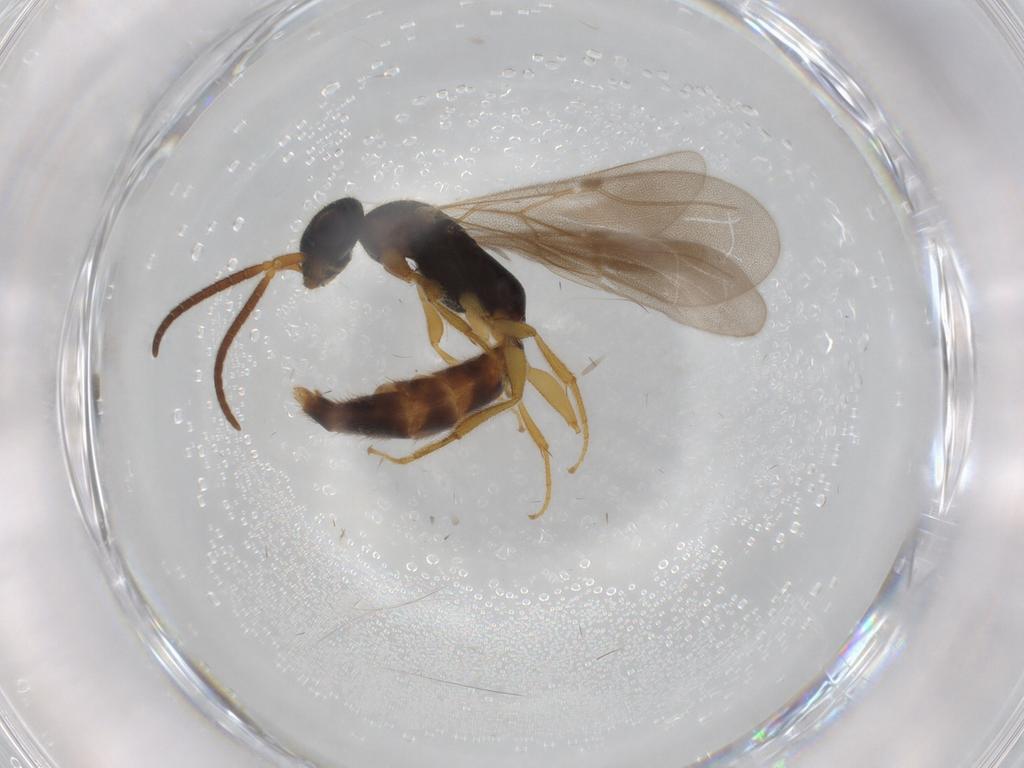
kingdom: Animalia
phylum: Arthropoda
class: Insecta
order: Hymenoptera
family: Bethylidae
